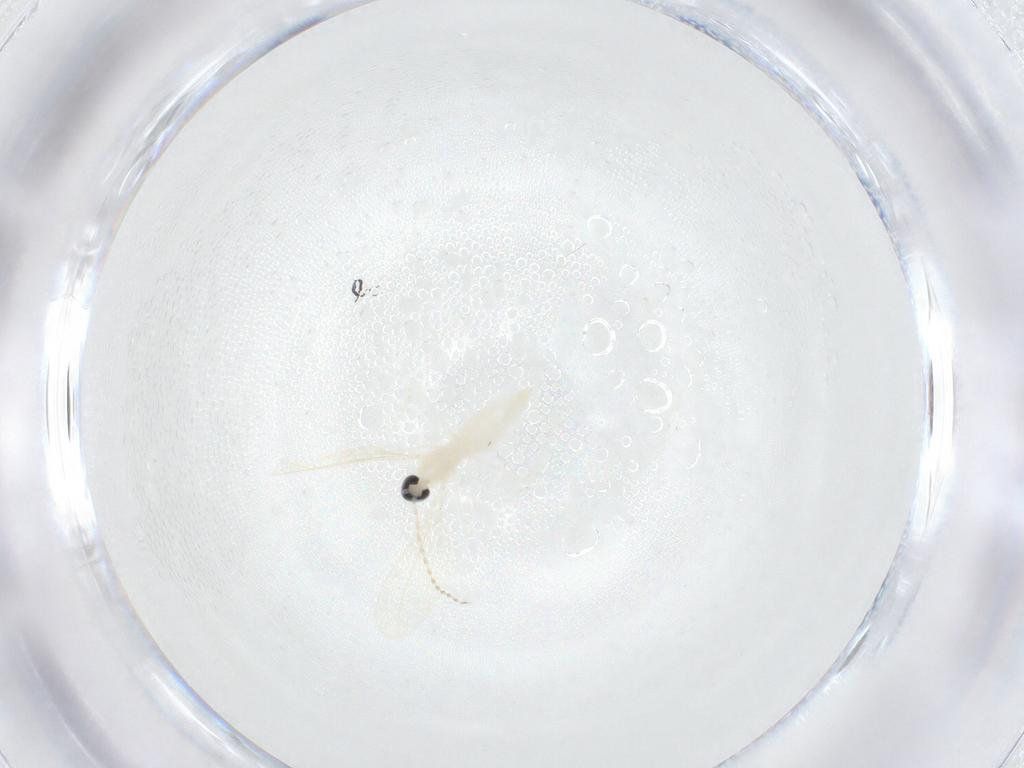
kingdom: Animalia
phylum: Arthropoda
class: Insecta
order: Diptera
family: Cecidomyiidae
